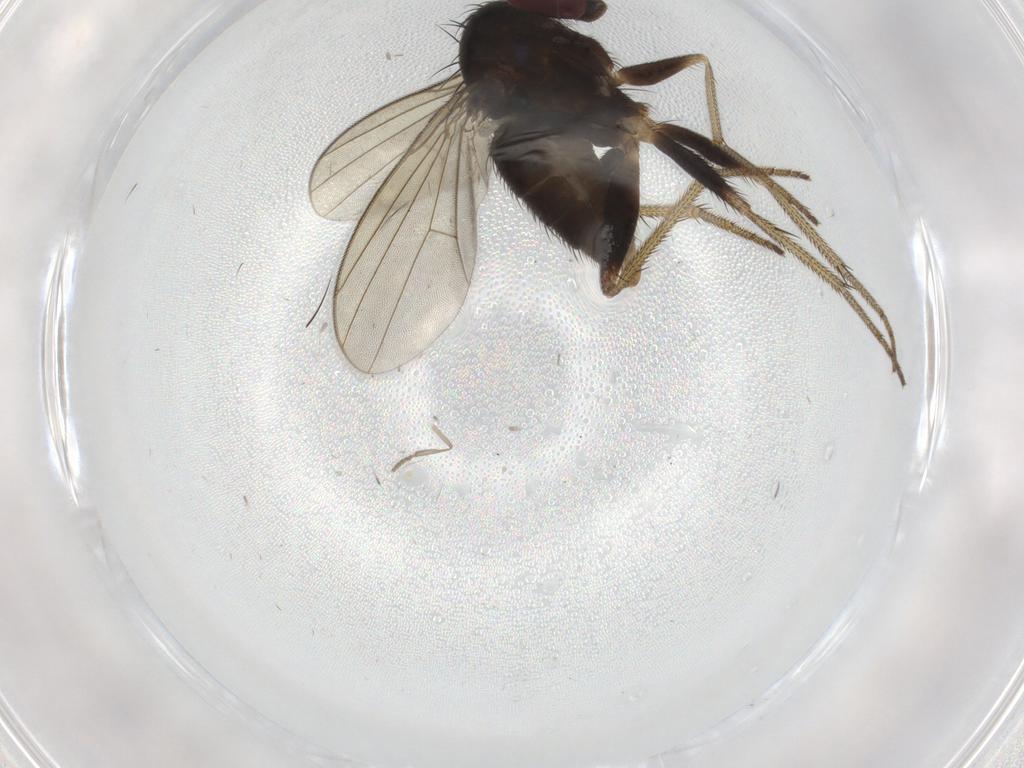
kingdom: Animalia
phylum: Arthropoda
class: Insecta
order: Diptera
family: Dolichopodidae
